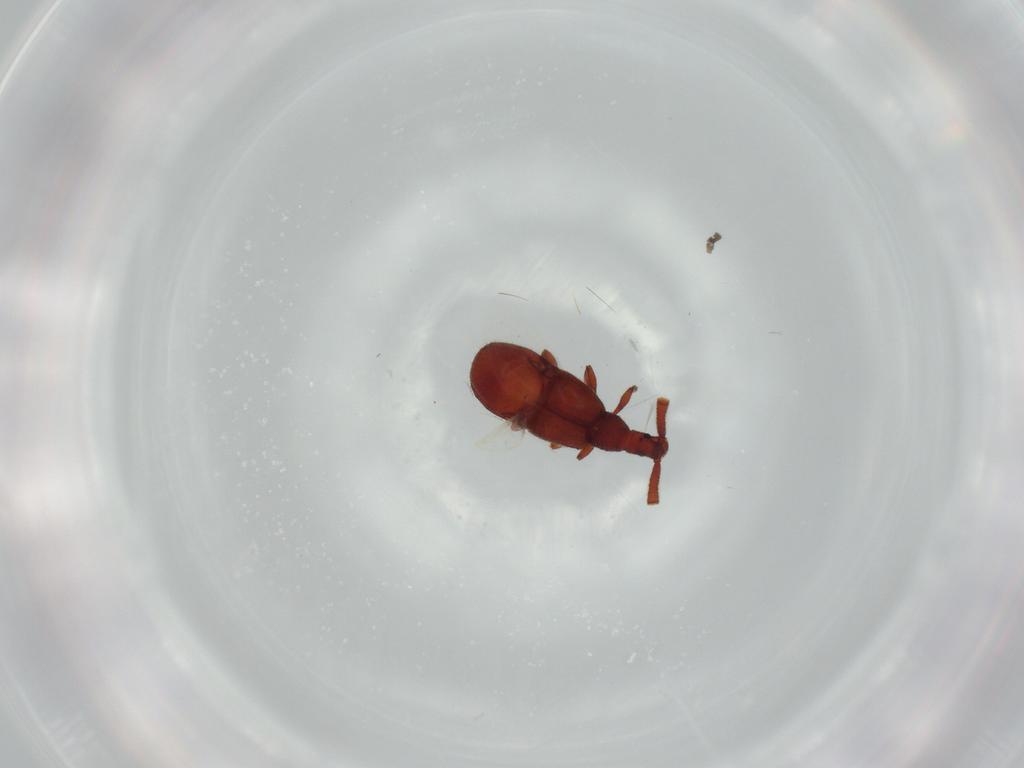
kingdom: Animalia
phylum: Arthropoda
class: Insecta
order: Coleoptera
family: Staphylinidae
